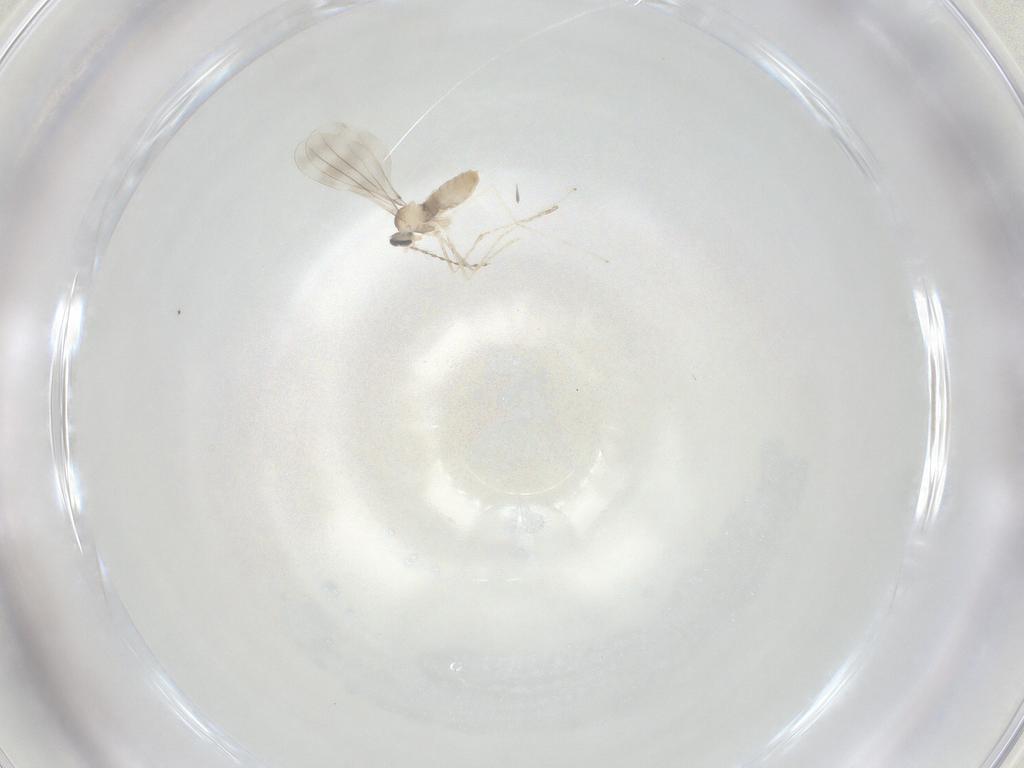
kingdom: Animalia
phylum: Arthropoda
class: Insecta
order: Diptera
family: Cecidomyiidae
